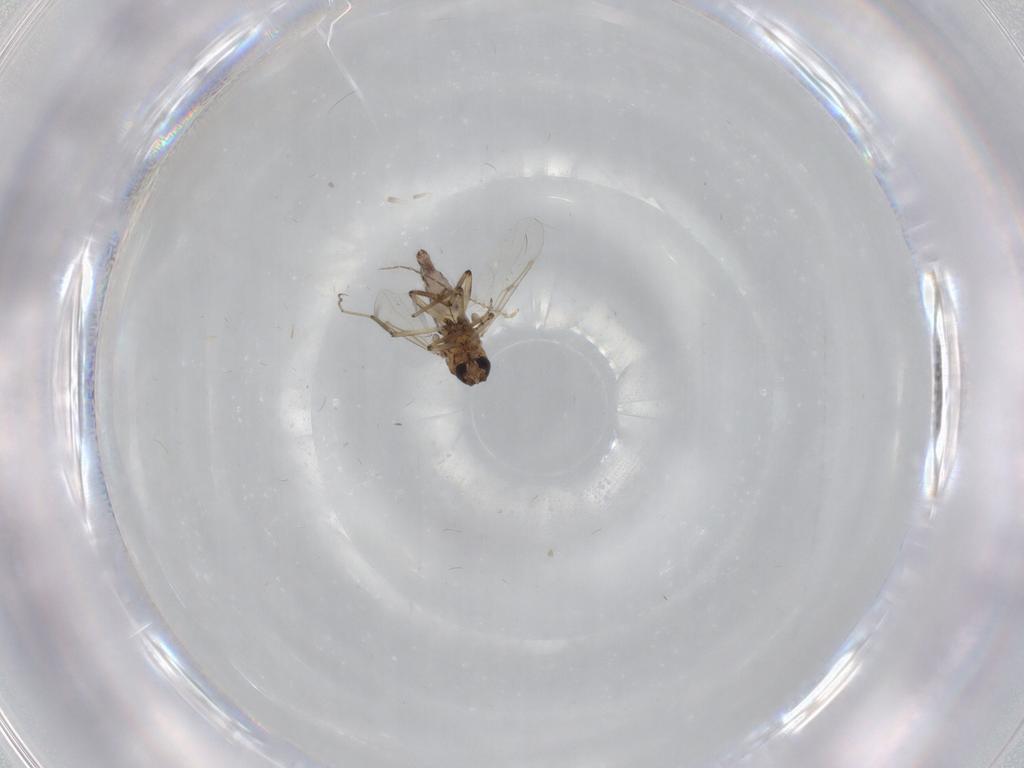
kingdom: Animalia
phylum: Arthropoda
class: Insecta
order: Diptera
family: Ceratopogonidae
